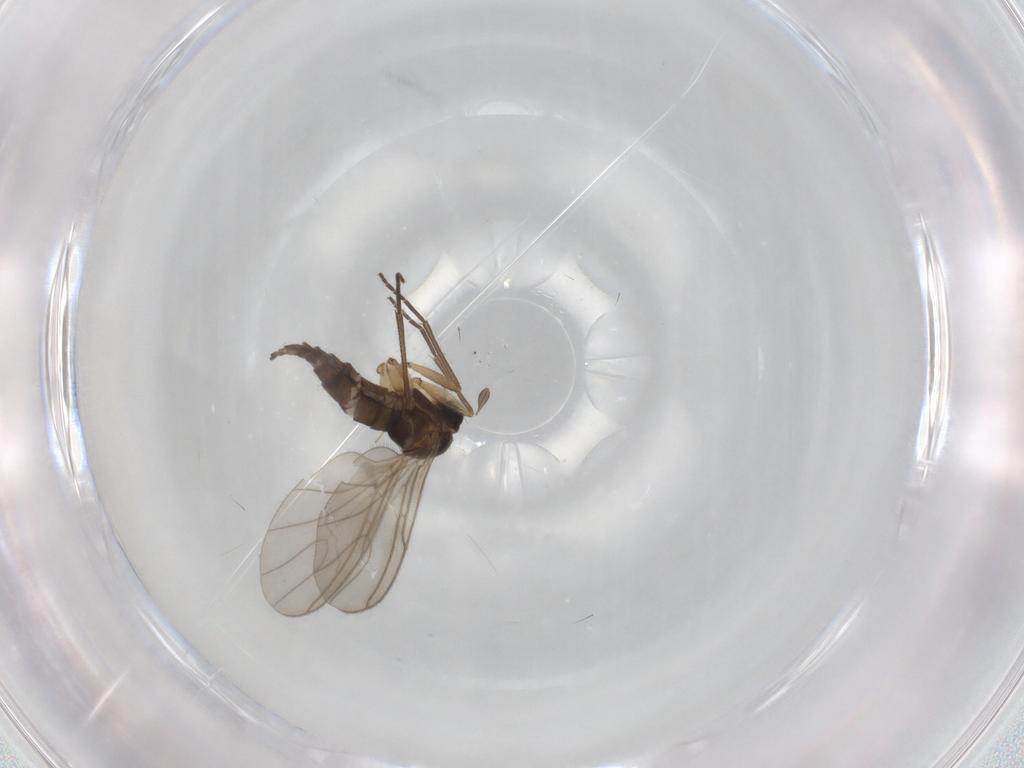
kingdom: Animalia
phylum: Arthropoda
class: Insecta
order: Diptera
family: Sciaridae
